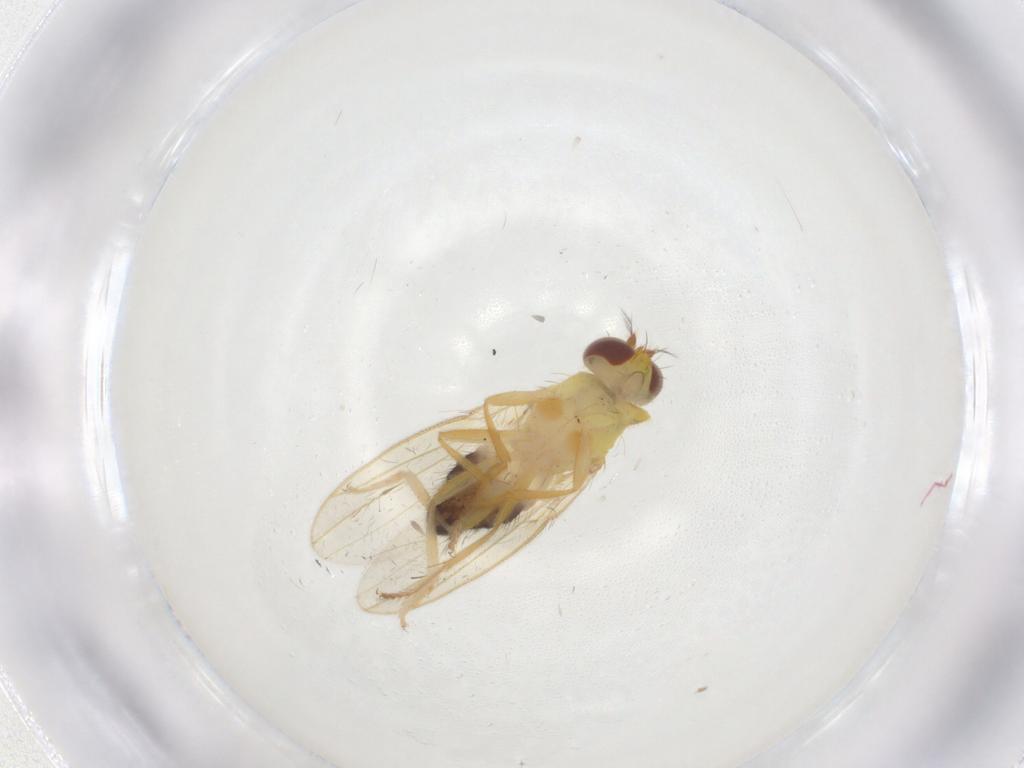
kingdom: Animalia
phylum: Arthropoda
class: Insecta
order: Diptera
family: Periscelididae
